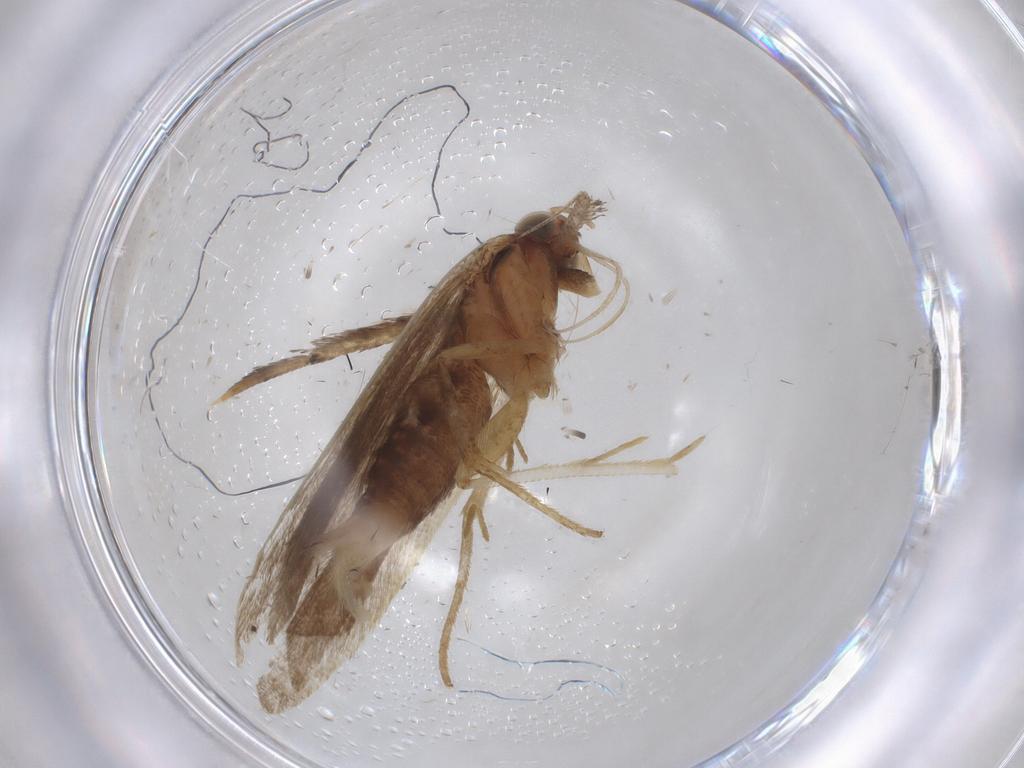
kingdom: Animalia
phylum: Arthropoda
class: Insecta
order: Lepidoptera
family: Gelechiidae
